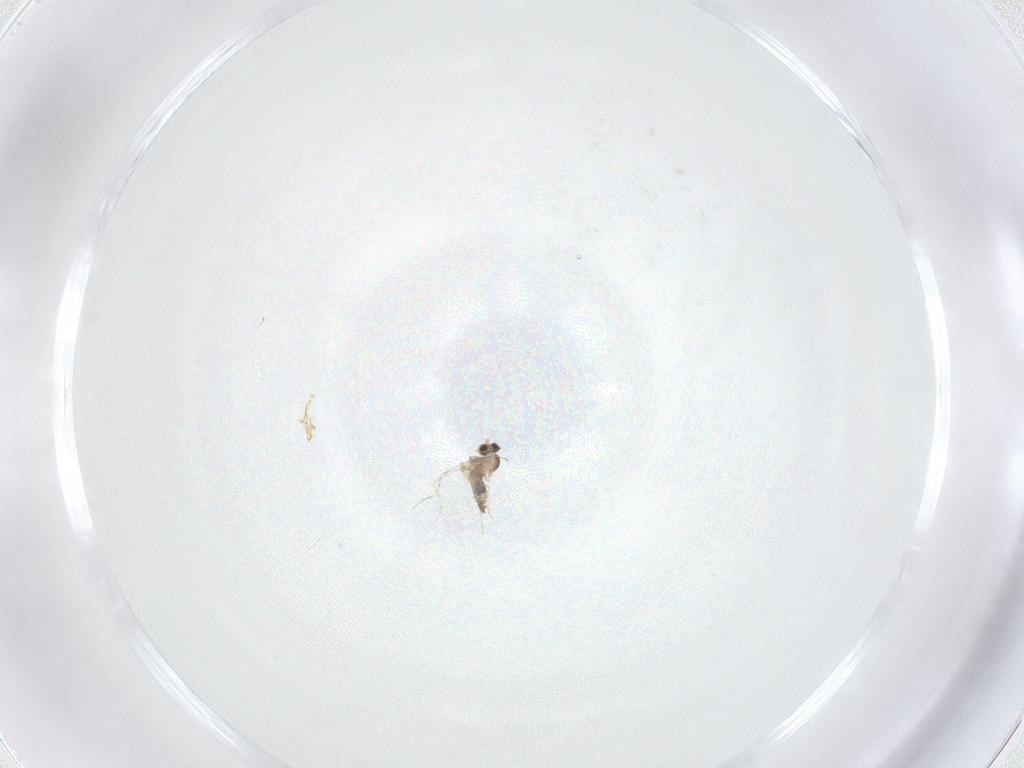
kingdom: Animalia
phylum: Arthropoda
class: Insecta
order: Diptera
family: Cecidomyiidae
